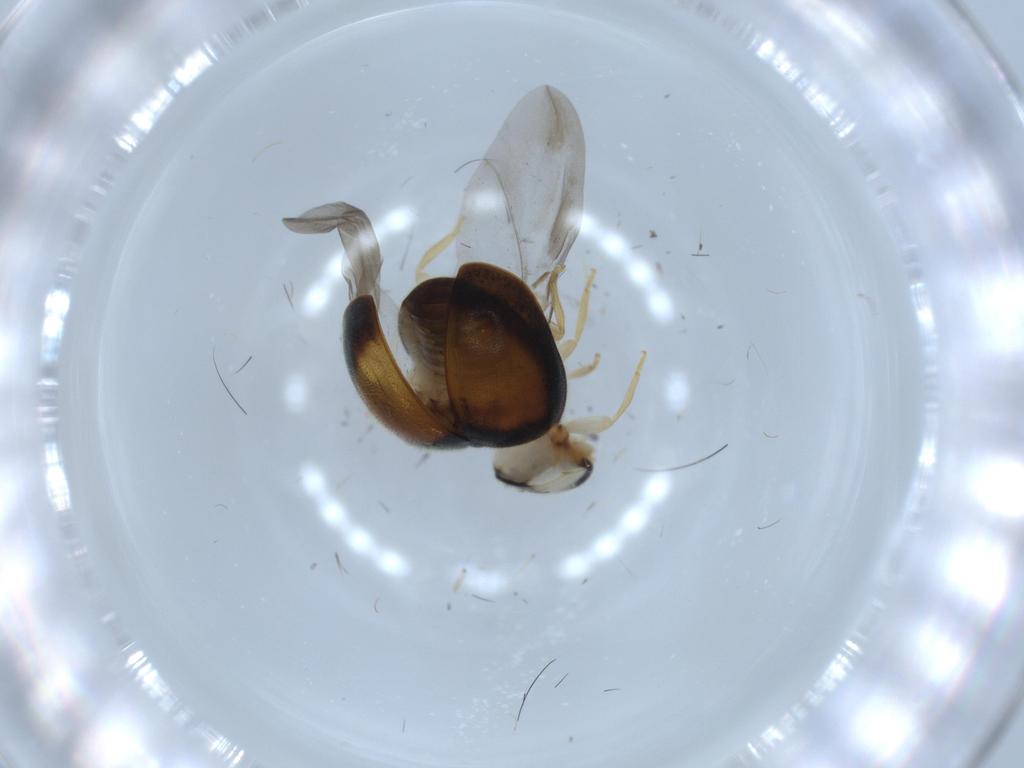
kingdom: Animalia
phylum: Arthropoda
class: Insecta
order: Coleoptera
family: Coccinellidae
